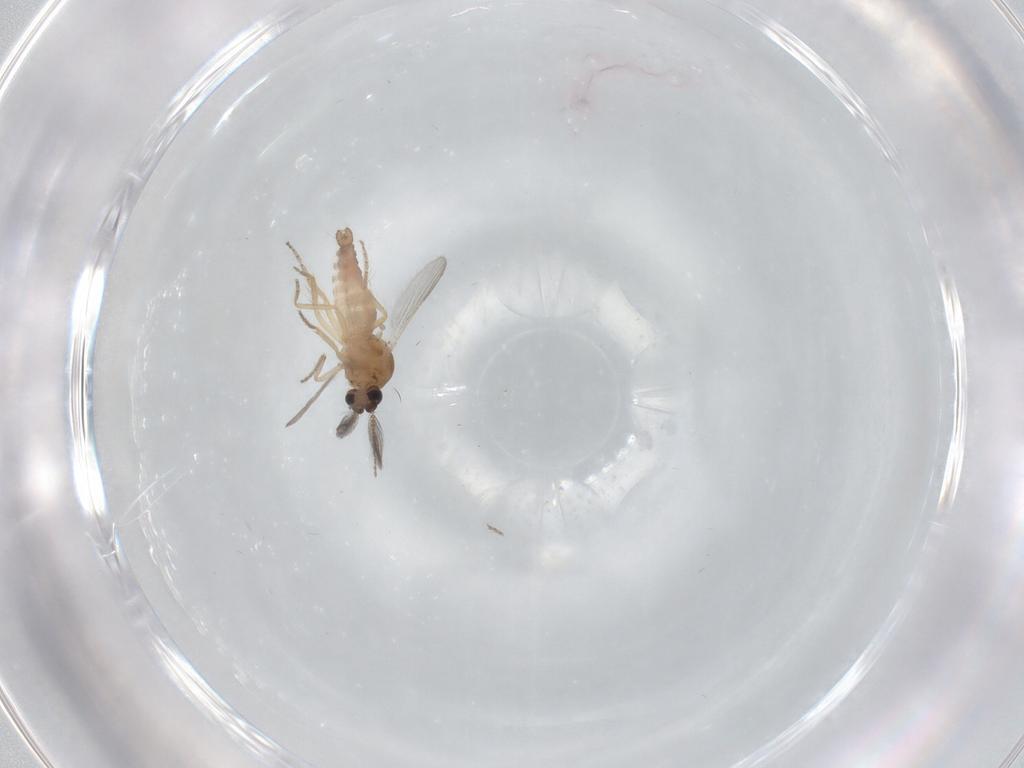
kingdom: Animalia
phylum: Arthropoda
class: Insecta
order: Diptera
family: Ceratopogonidae
